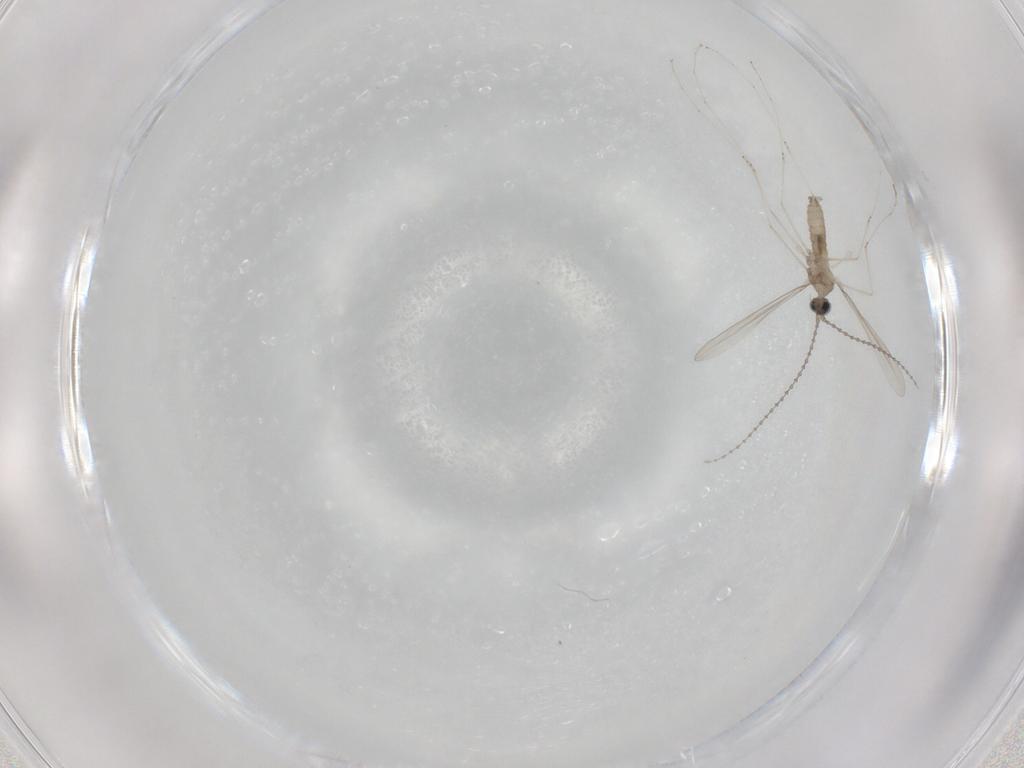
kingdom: Animalia
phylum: Arthropoda
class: Insecta
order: Diptera
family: Cecidomyiidae
